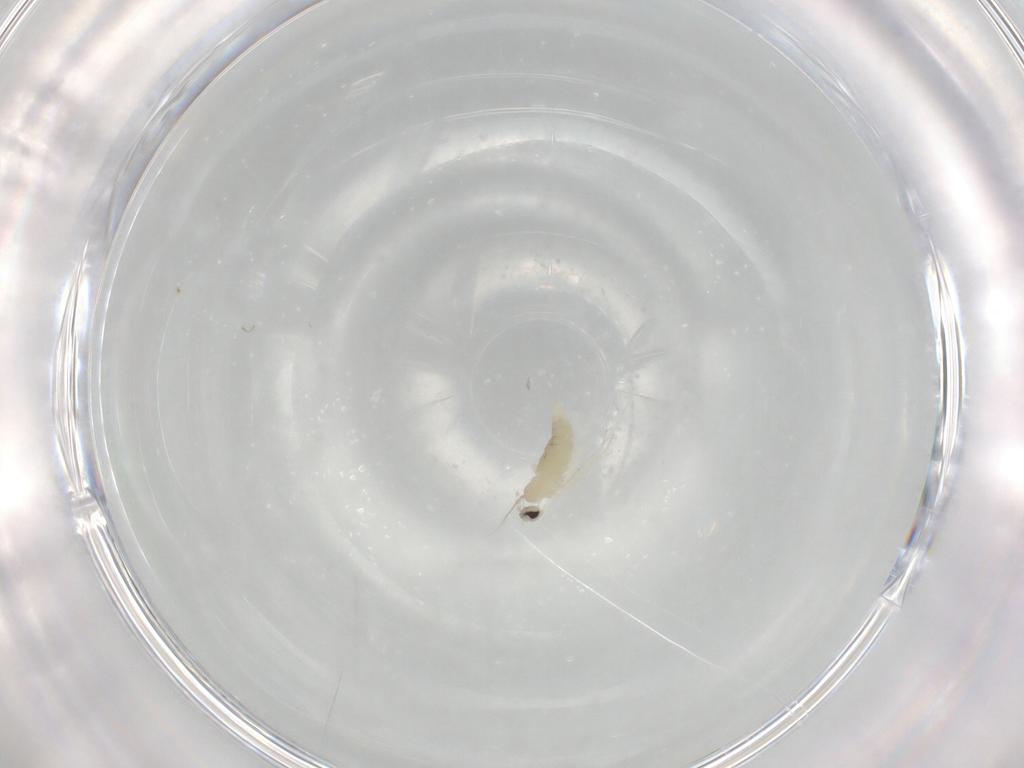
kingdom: Animalia
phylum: Arthropoda
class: Insecta
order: Diptera
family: Cecidomyiidae
